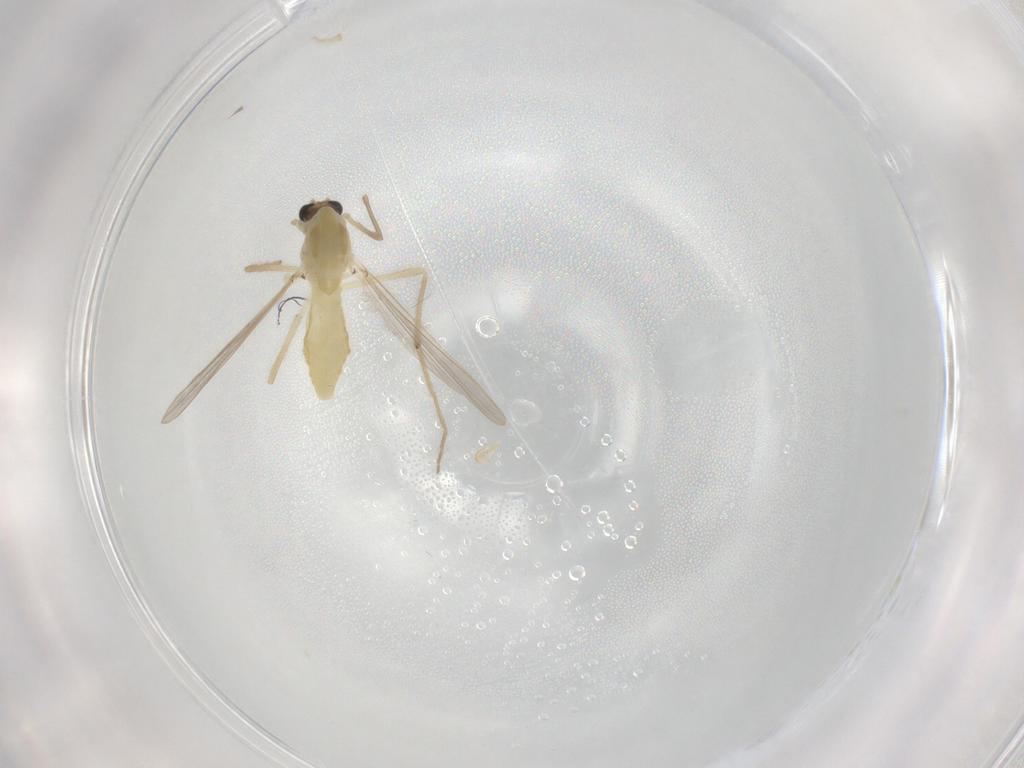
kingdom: Animalia
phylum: Arthropoda
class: Insecta
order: Diptera
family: Chironomidae
